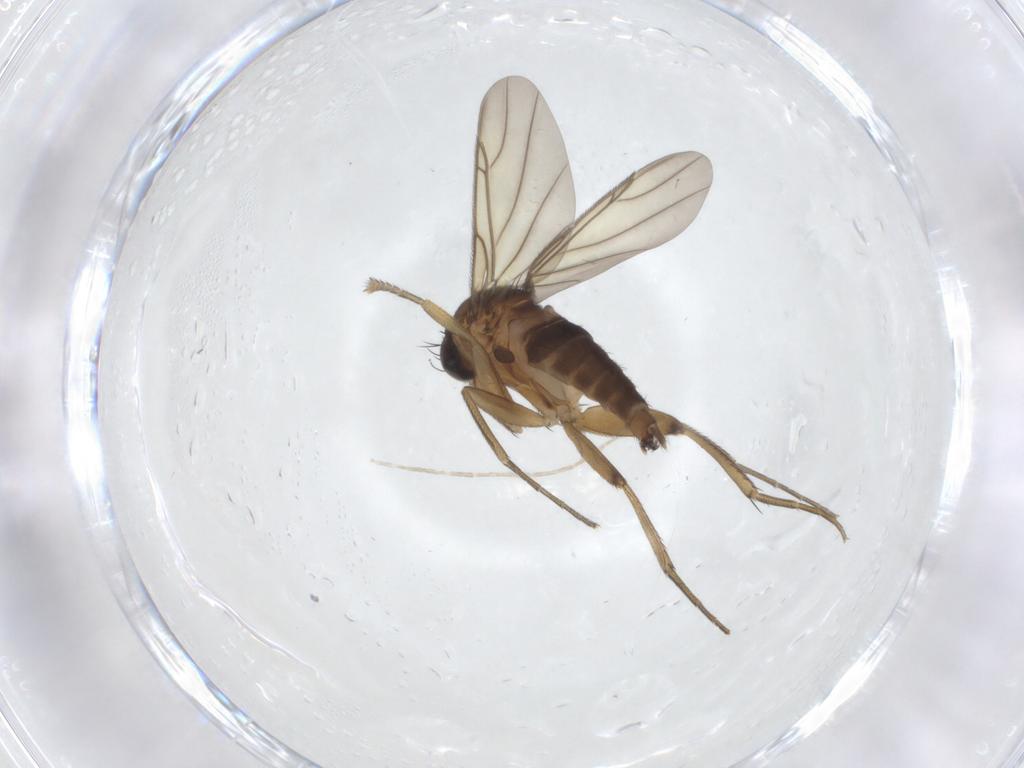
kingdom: Animalia
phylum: Arthropoda
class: Insecta
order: Diptera
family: Phoridae
